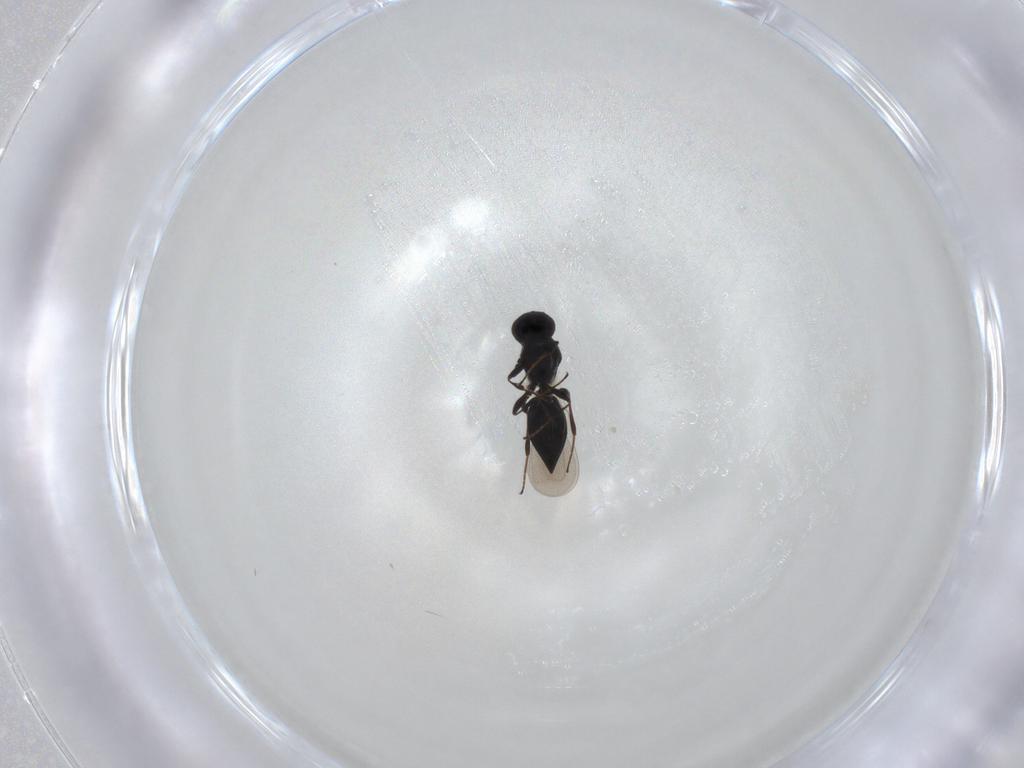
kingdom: Animalia
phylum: Arthropoda
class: Insecta
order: Hymenoptera
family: Platygastridae
